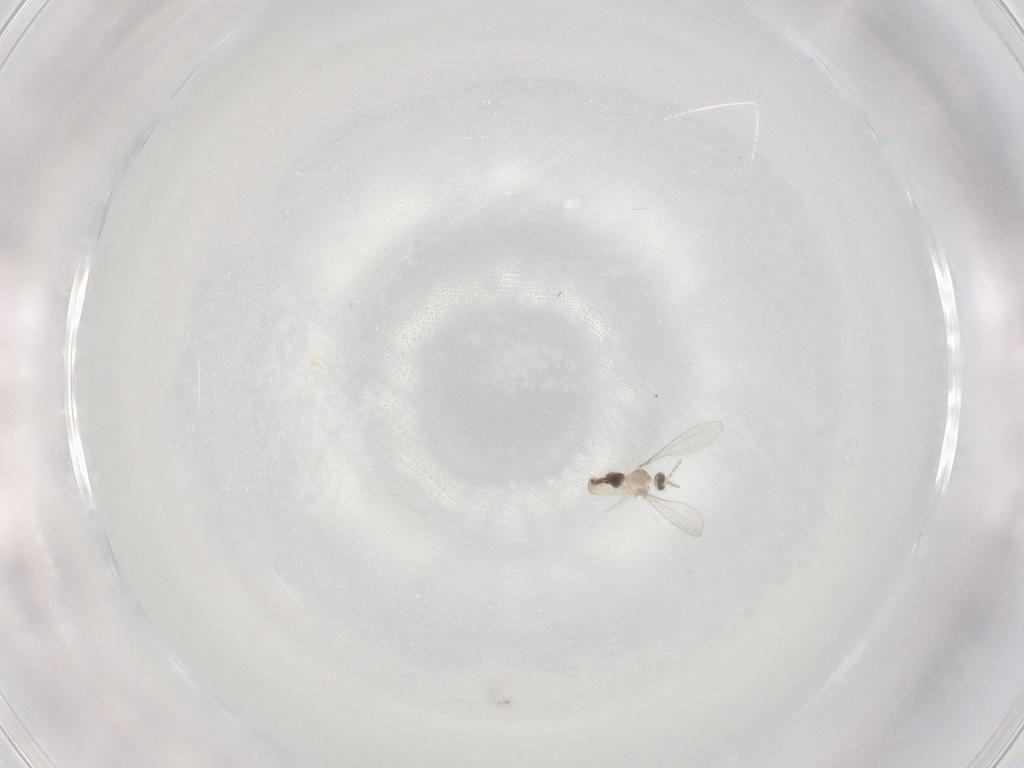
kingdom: Animalia
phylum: Arthropoda
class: Insecta
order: Diptera
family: Cecidomyiidae
